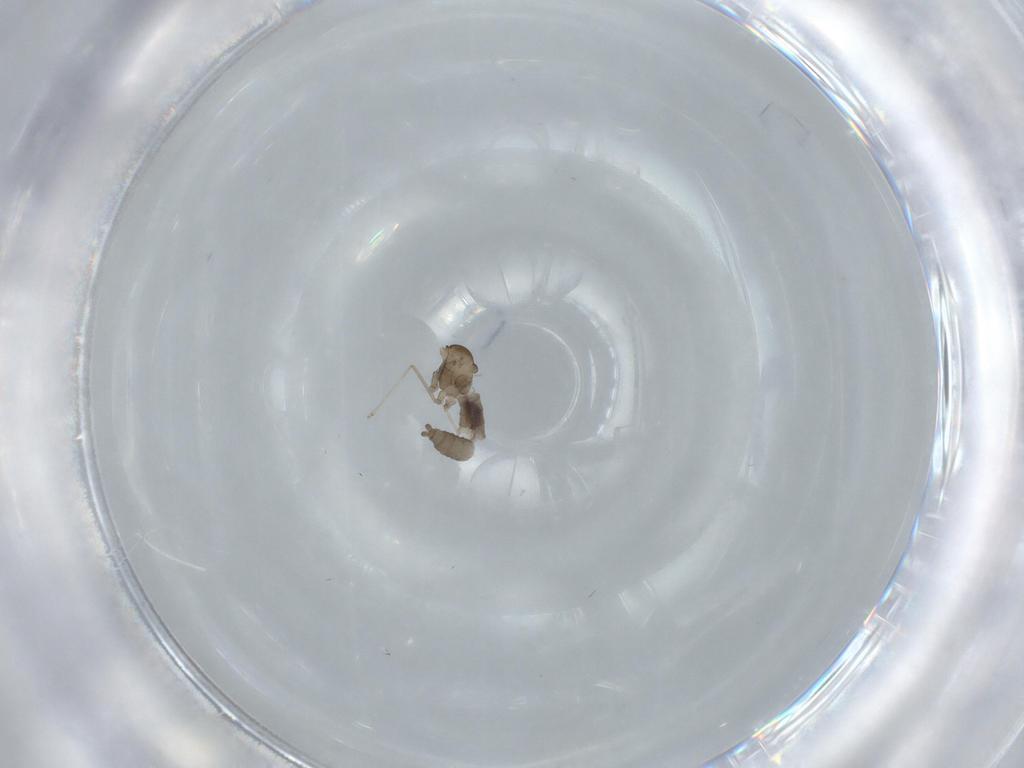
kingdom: Animalia
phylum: Arthropoda
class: Insecta
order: Diptera
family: Cecidomyiidae
